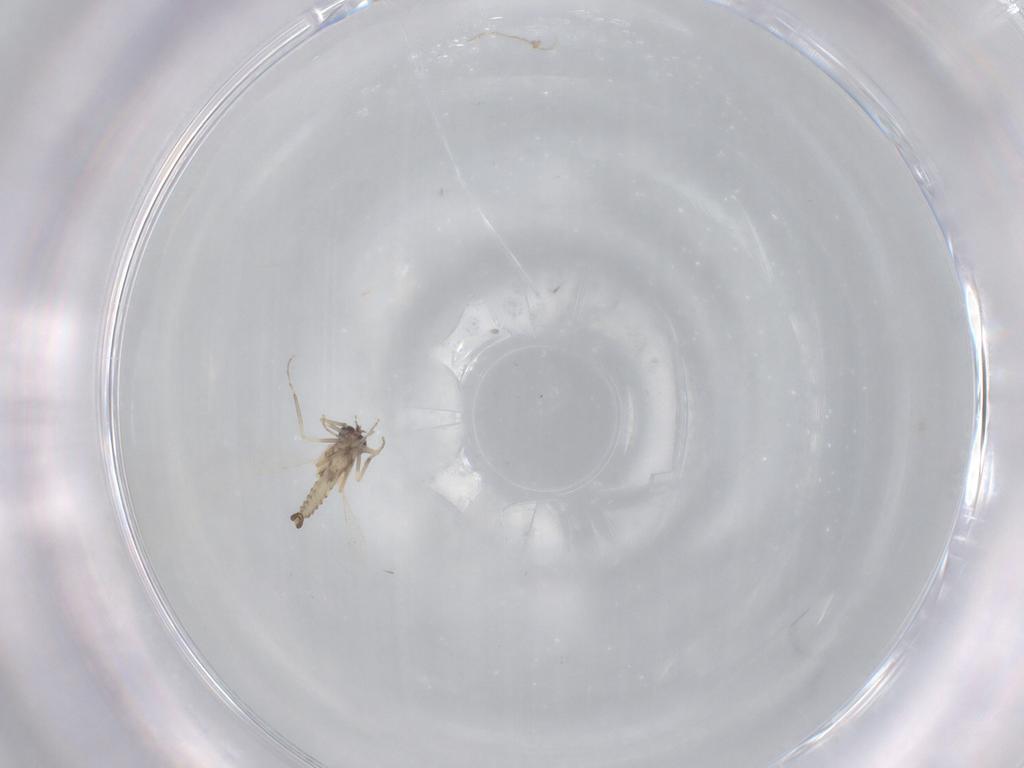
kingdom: Animalia
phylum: Arthropoda
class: Insecta
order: Diptera
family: Ceratopogonidae
